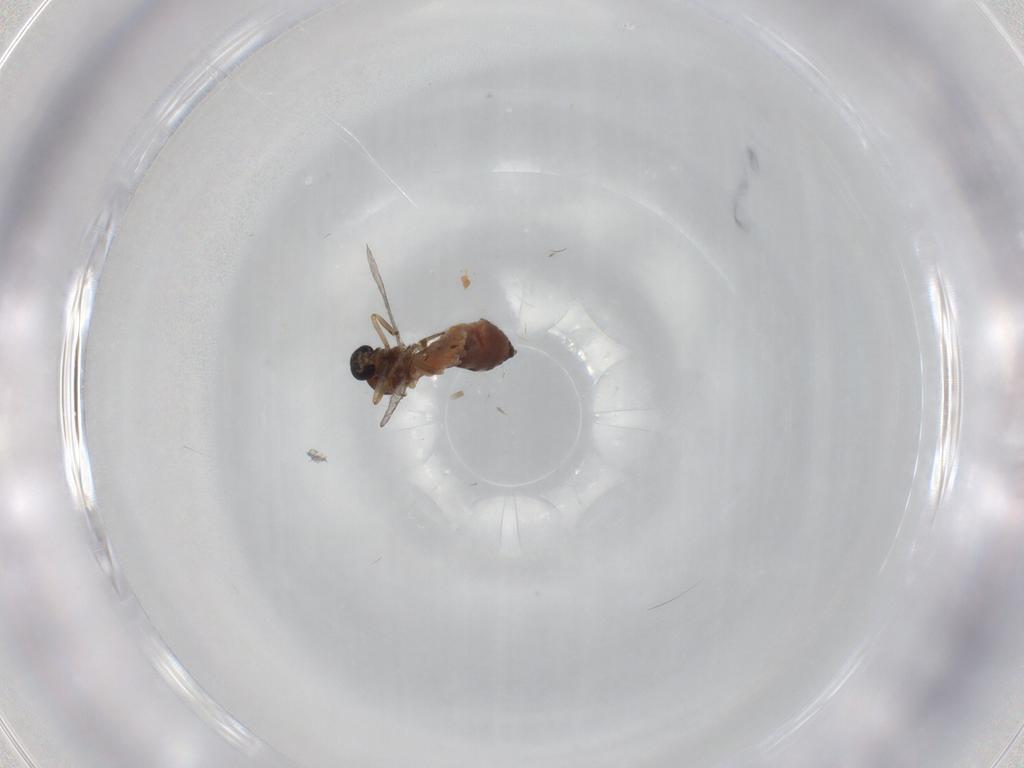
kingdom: Animalia
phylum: Arthropoda
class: Insecta
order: Diptera
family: Ceratopogonidae
